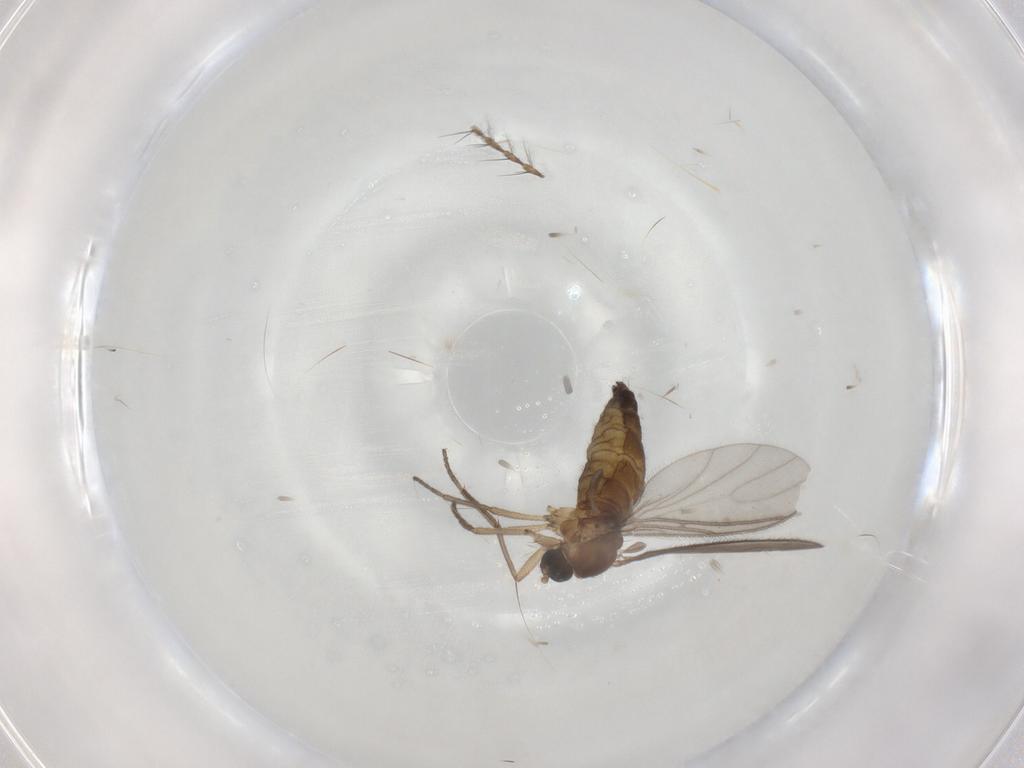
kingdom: Animalia
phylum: Arthropoda
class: Insecta
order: Diptera
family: Sciaridae
